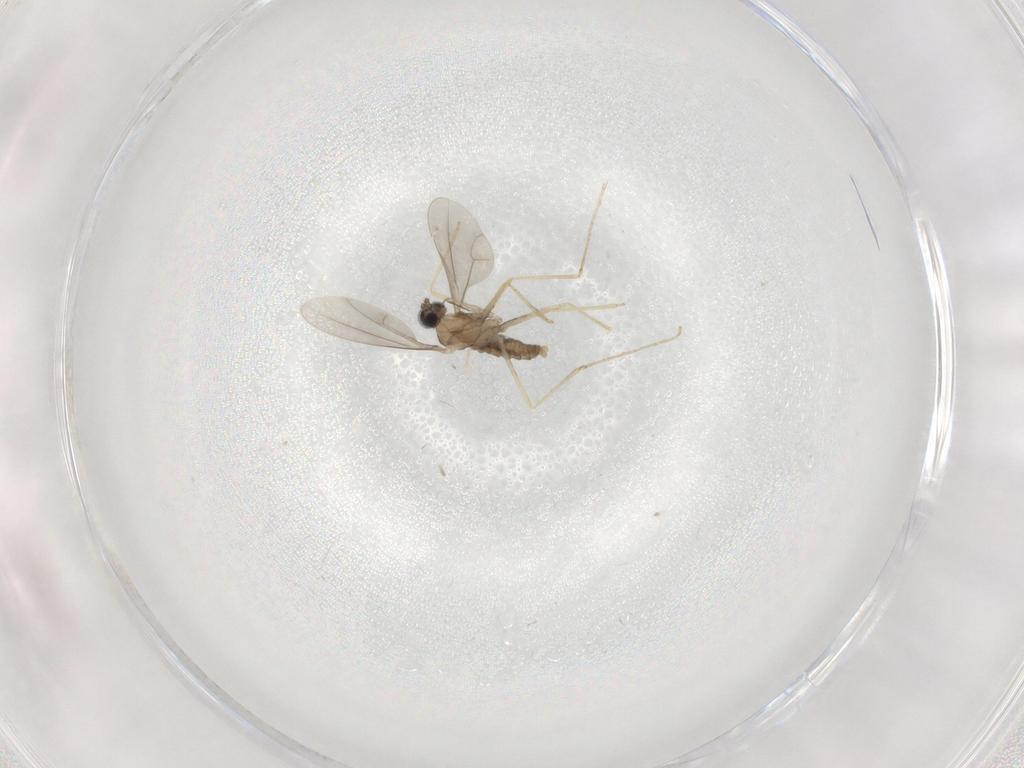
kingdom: Animalia
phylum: Arthropoda
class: Insecta
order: Diptera
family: Cecidomyiidae
